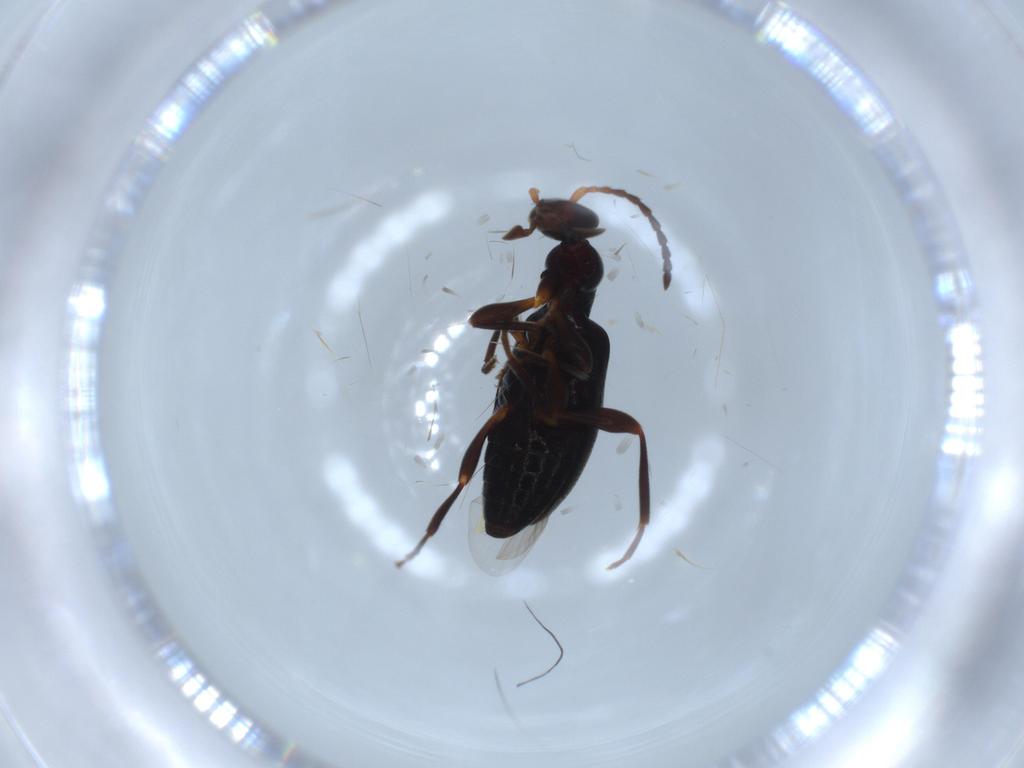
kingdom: Animalia
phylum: Arthropoda
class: Insecta
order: Coleoptera
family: Anthicidae
